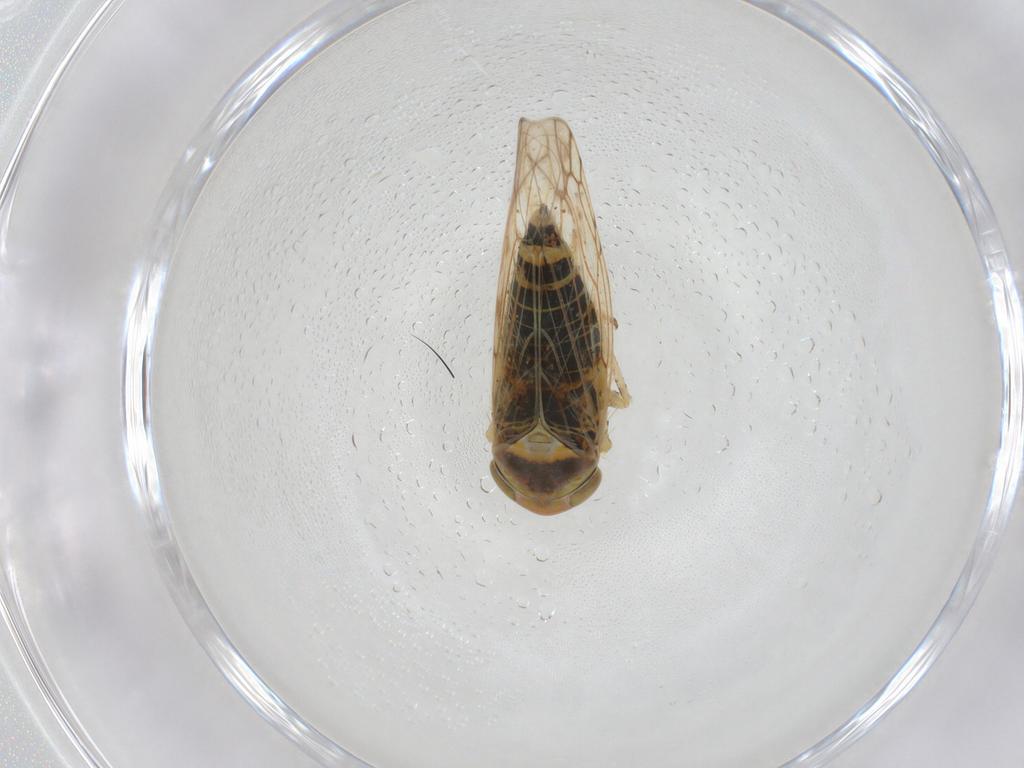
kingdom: Animalia
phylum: Arthropoda
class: Insecta
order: Hemiptera
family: Cicadellidae
